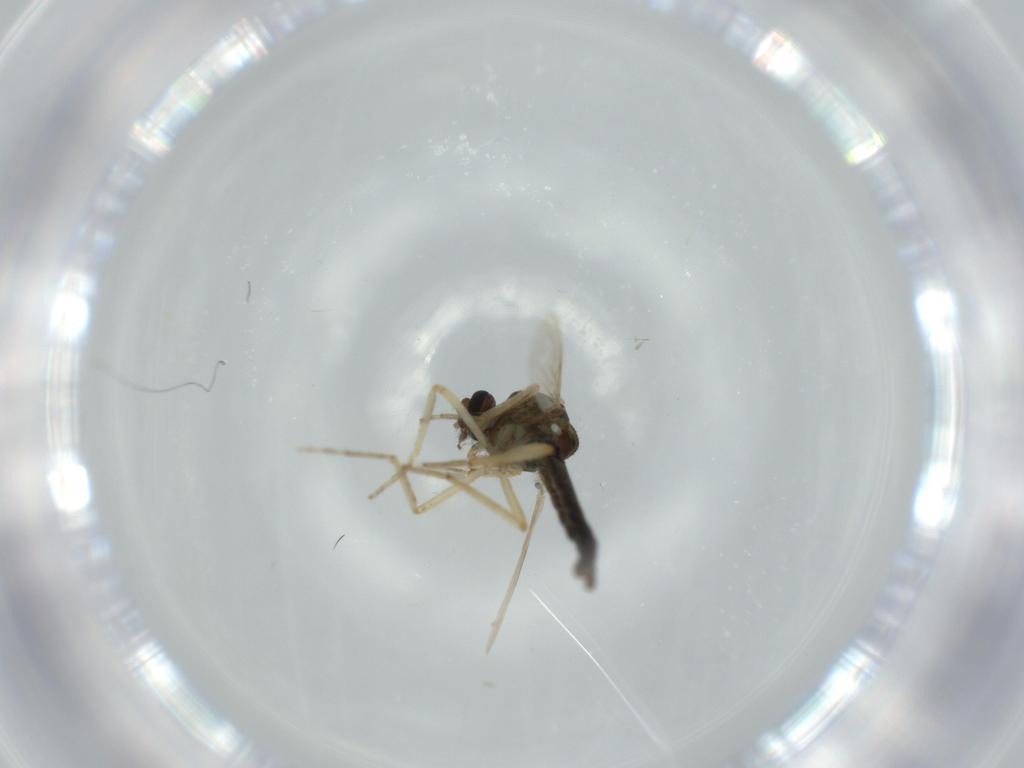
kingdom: Animalia
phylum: Arthropoda
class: Insecta
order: Diptera
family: Ceratopogonidae
